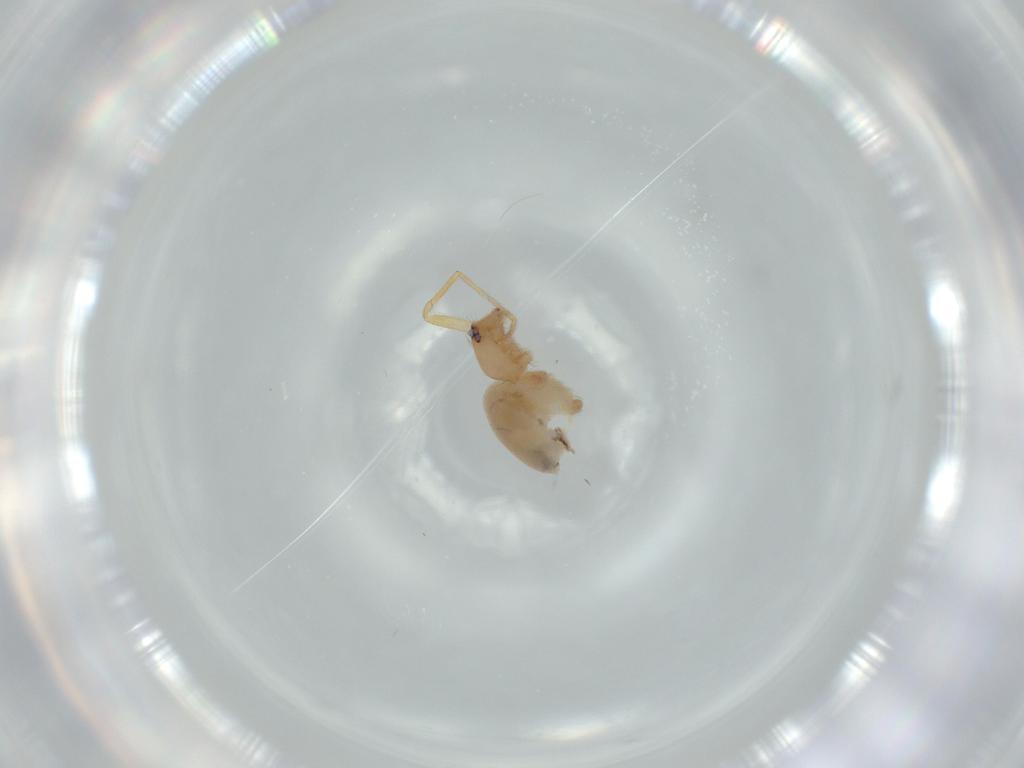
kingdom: Animalia
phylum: Arthropoda
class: Arachnida
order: Araneae
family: Oonopidae
